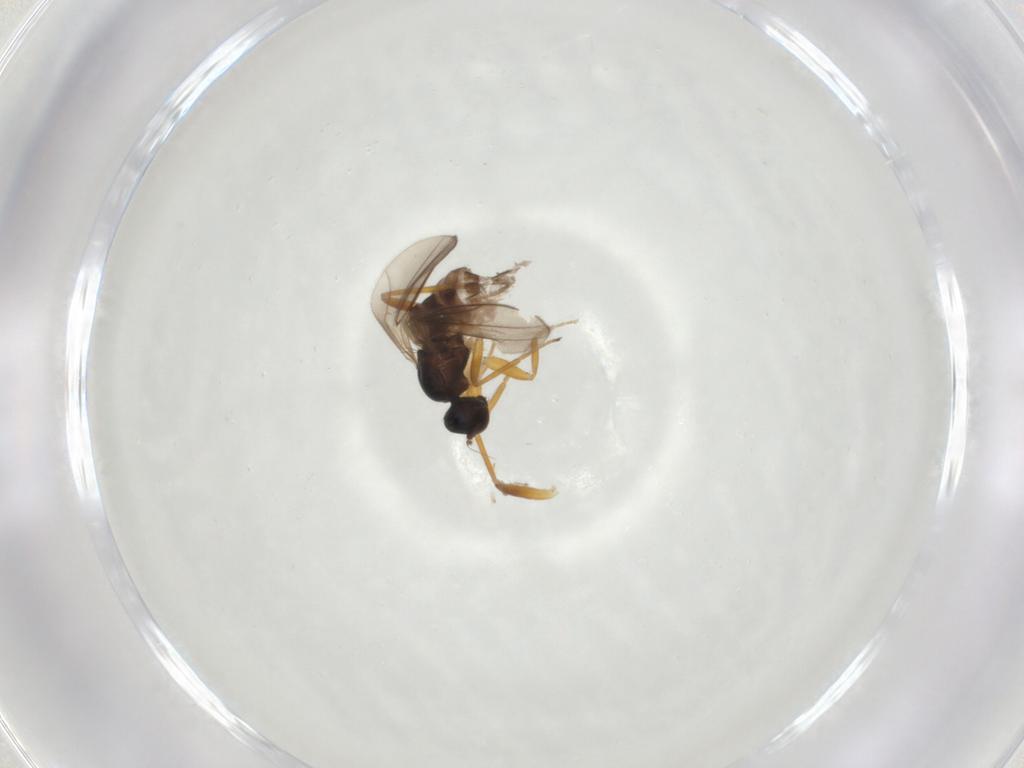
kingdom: Animalia
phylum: Arthropoda
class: Insecta
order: Diptera
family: Hybotidae
